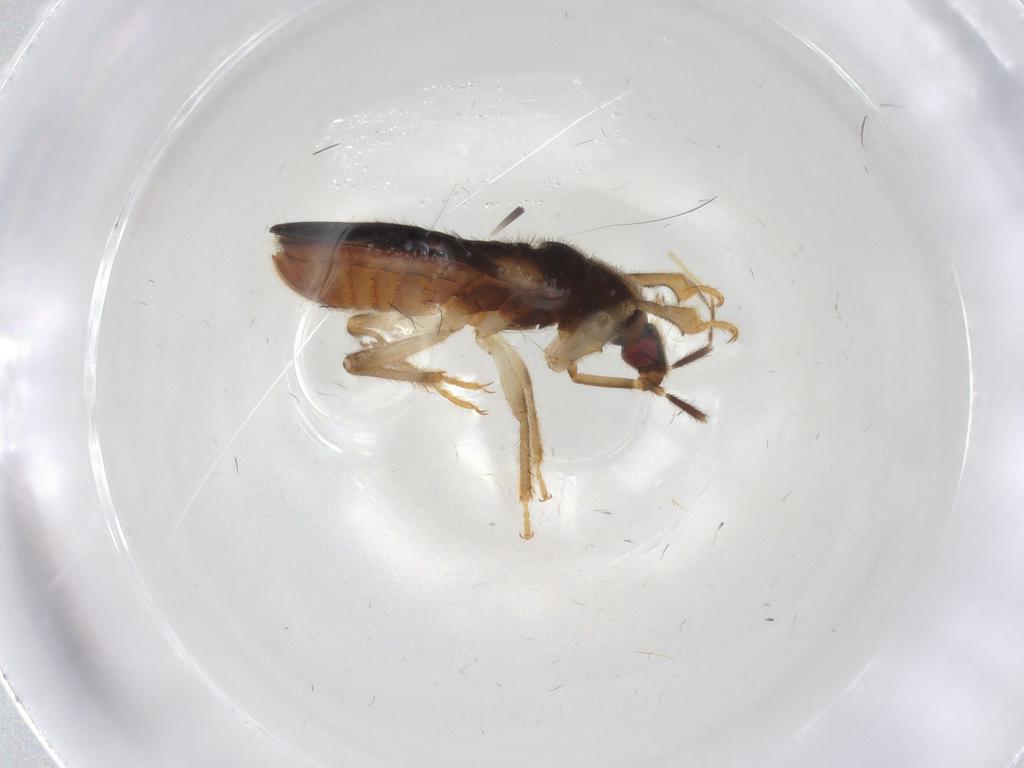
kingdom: Animalia
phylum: Arthropoda
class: Insecta
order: Hemiptera
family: Nabidae
